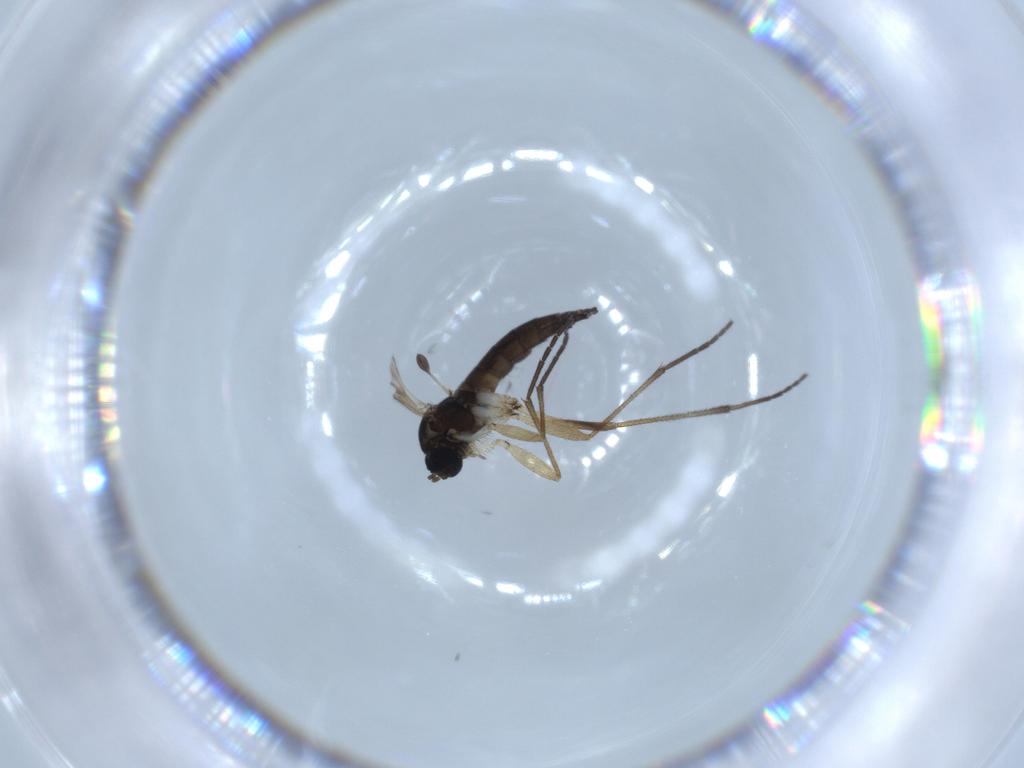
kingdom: Animalia
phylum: Arthropoda
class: Insecta
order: Diptera
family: Sciaridae
